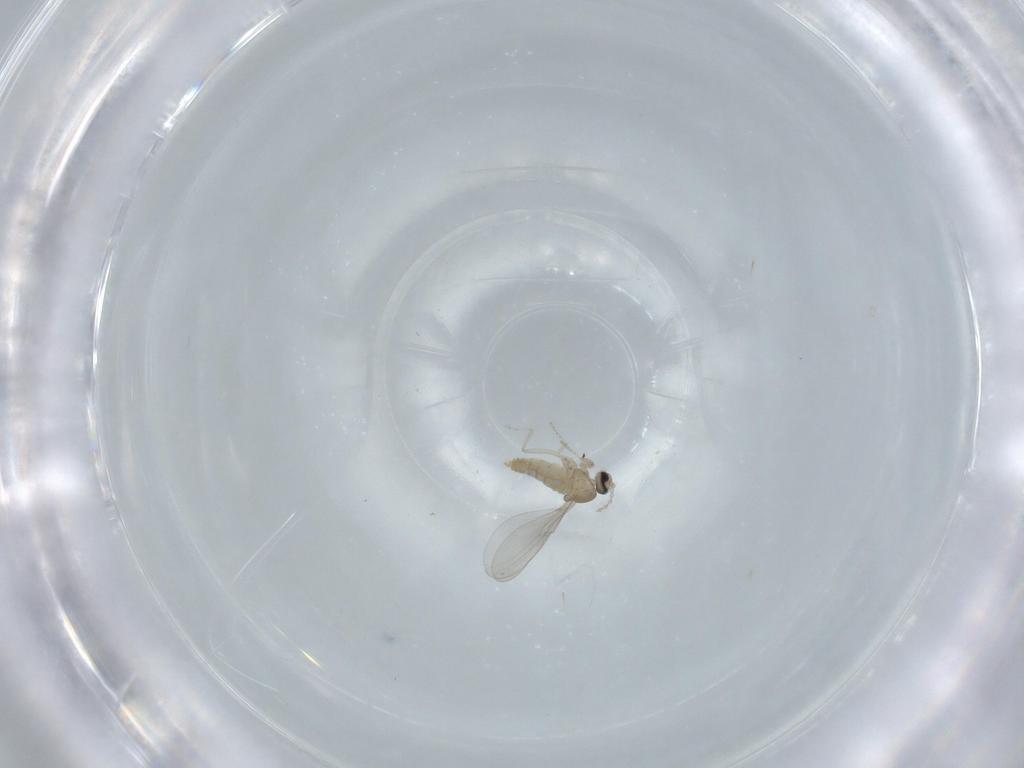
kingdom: Animalia
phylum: Arthropoda
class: Insecta
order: Diptera
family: Cecidomyiidae
